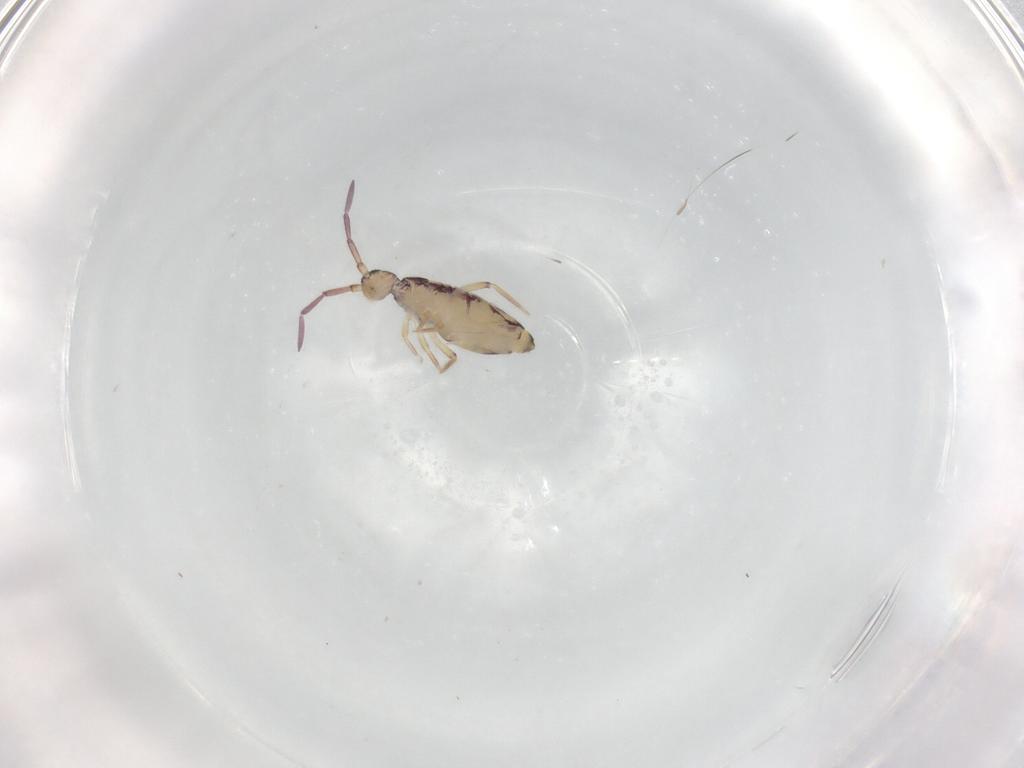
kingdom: Animalia
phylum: Arthropoda
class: Collembola
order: Entomobryomorpha
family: Entomobryidae
